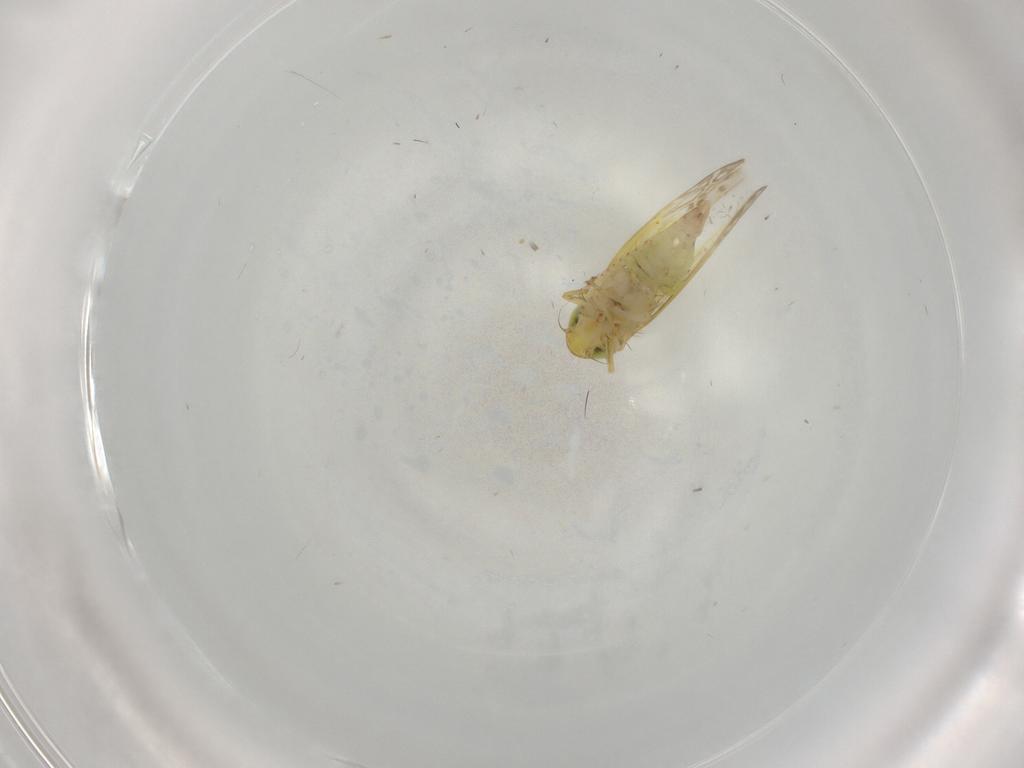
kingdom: Animalia
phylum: Arthropoda
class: Insecta
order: Hemiptera
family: Cicadellidae
